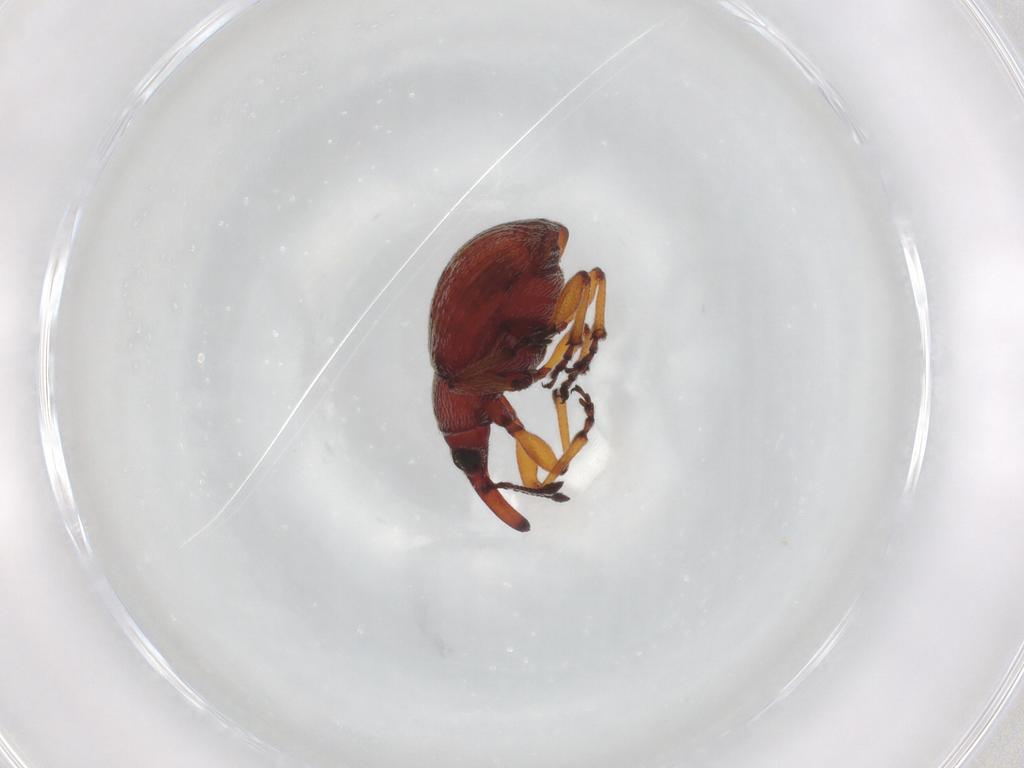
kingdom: Animalia
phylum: Arthropoda
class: Insecta
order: Coleoptera
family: Brentidae
